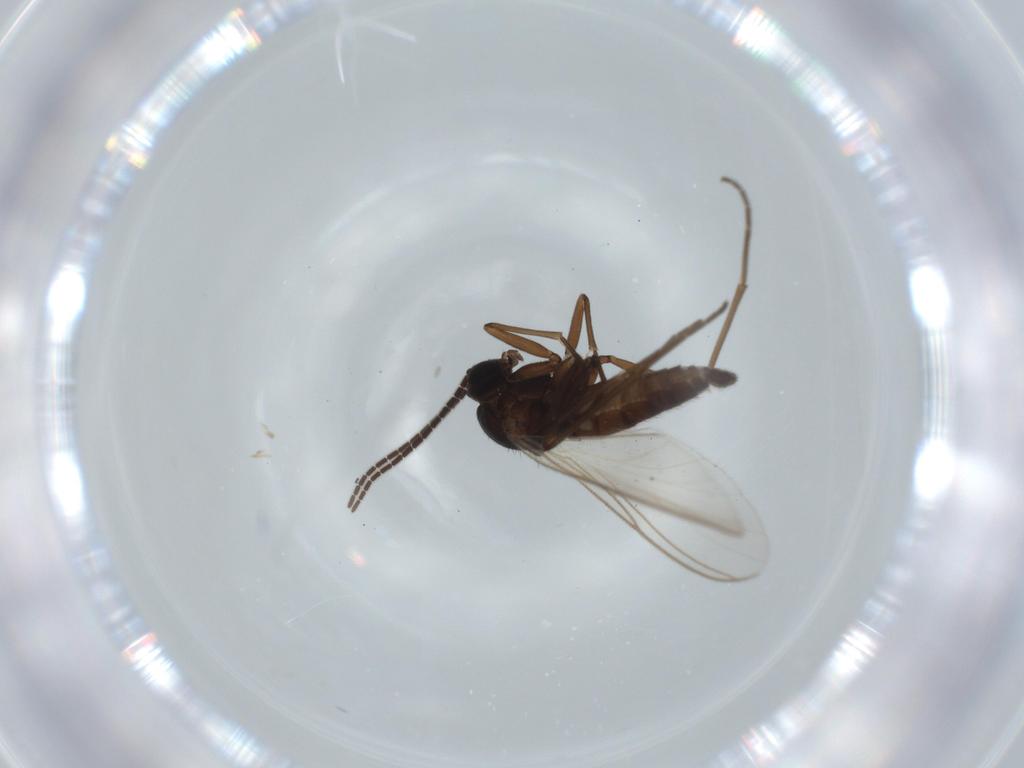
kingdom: Animalia
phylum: Arthropoda
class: Insecta
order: Diptera
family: Sciaridae
